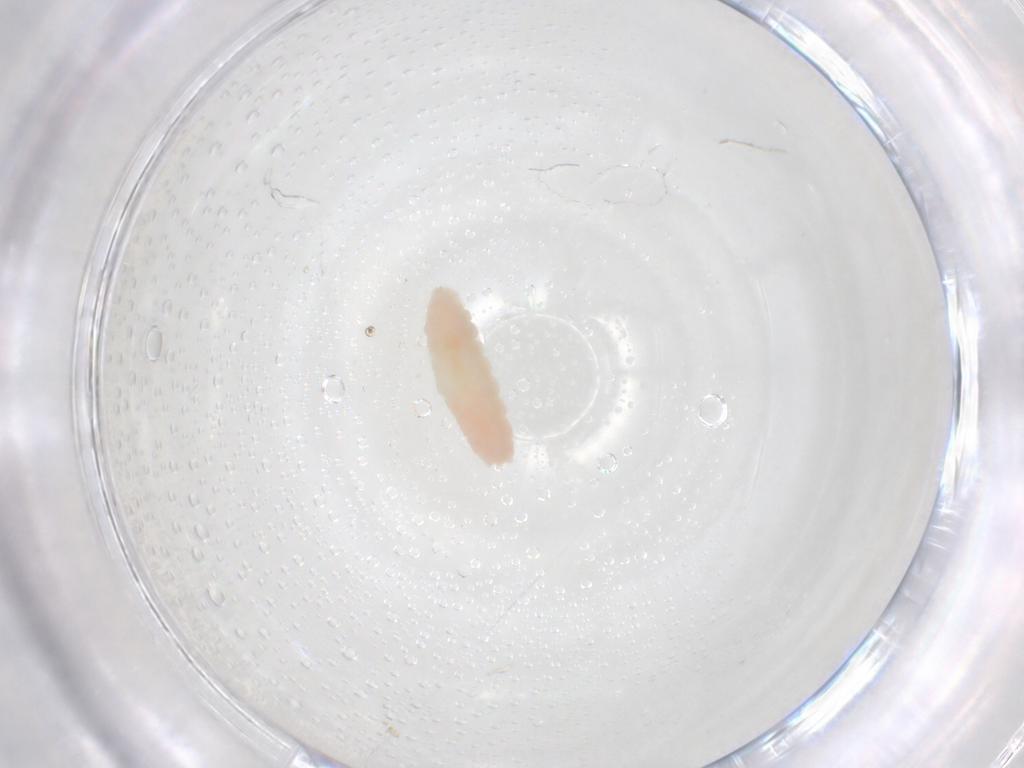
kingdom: Animalia
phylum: Arthropoda
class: Insecta
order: Diptera
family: Cecidomyiidae
